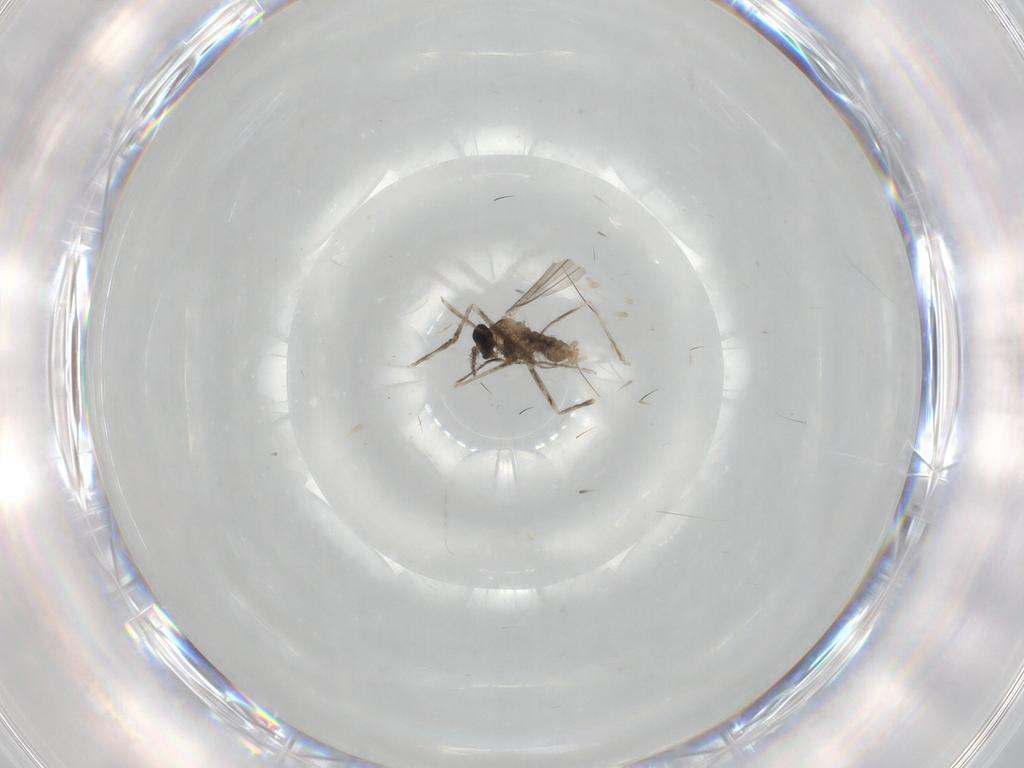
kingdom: Animalia
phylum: Arthropoda
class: Insecta
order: Diptera
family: Cecidomyiidae
